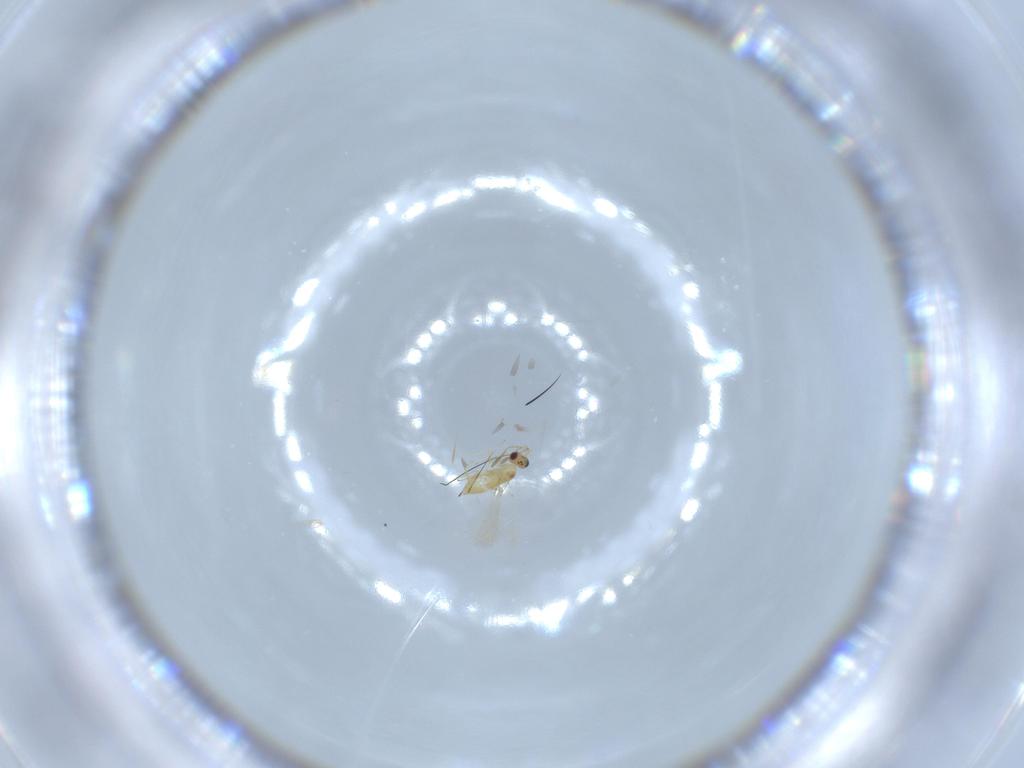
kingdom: Animalia
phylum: Arthropoda
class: Insecta
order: Hymenoptera
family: Mymaridae
